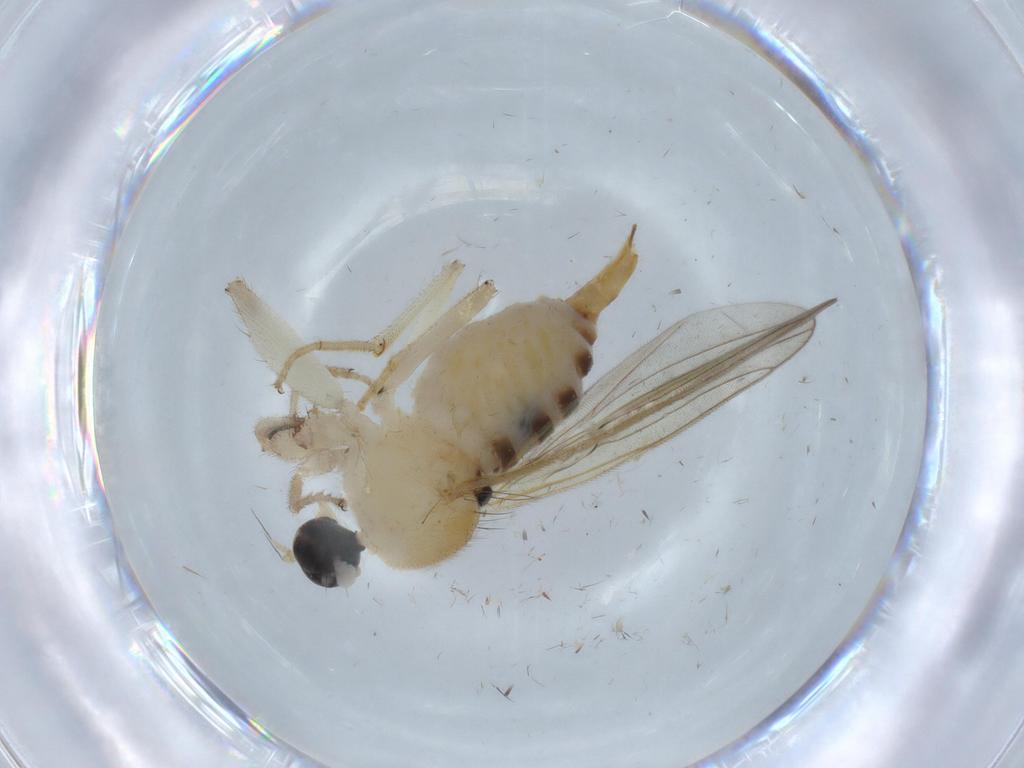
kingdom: Animalia
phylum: Arthropoda
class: Insecta
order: Diptera
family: Hybotidae
